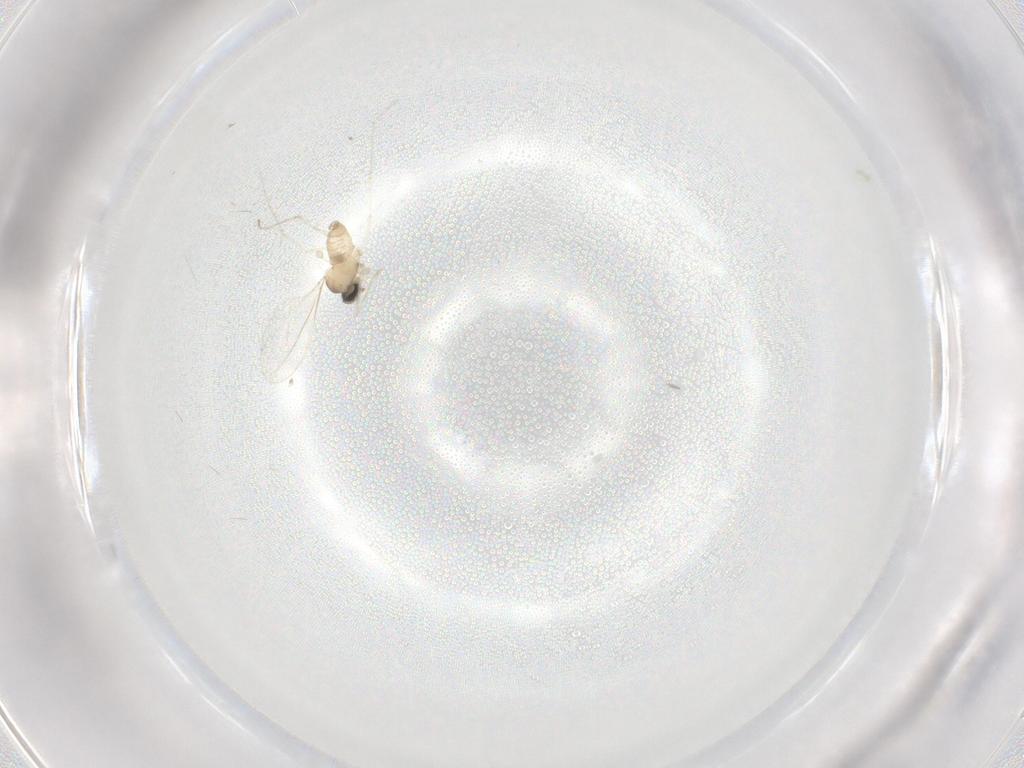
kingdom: Animalia
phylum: Arthropoda
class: Insecta
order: Diptera
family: Cecidomyiidae
